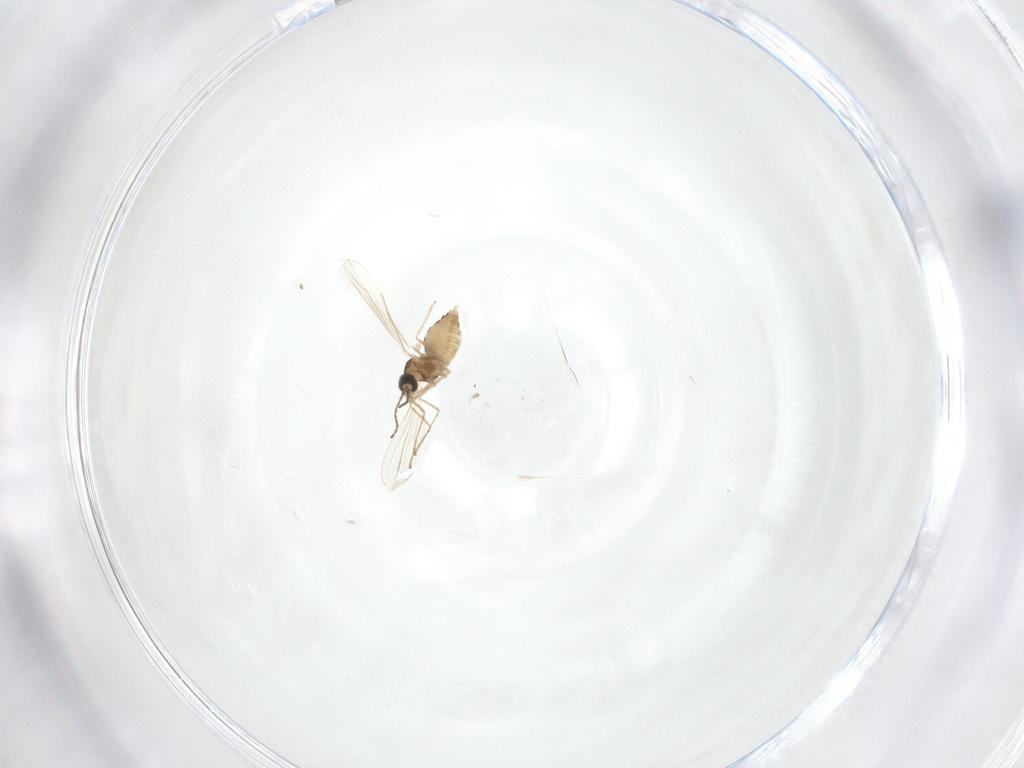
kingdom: Animalia
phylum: Arthropoda
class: Insecta
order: Diptera
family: Cecidomyiidae
